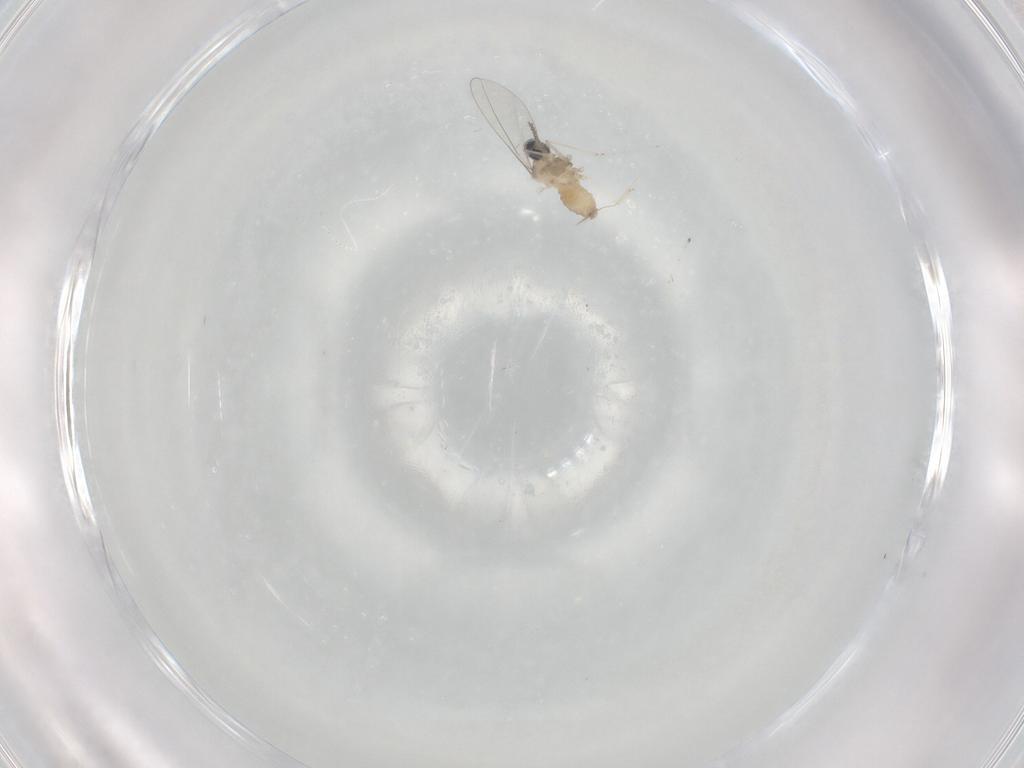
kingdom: Animalia
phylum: Arthropoda
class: Insecta
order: Diptera
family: Cecidomyiidae
